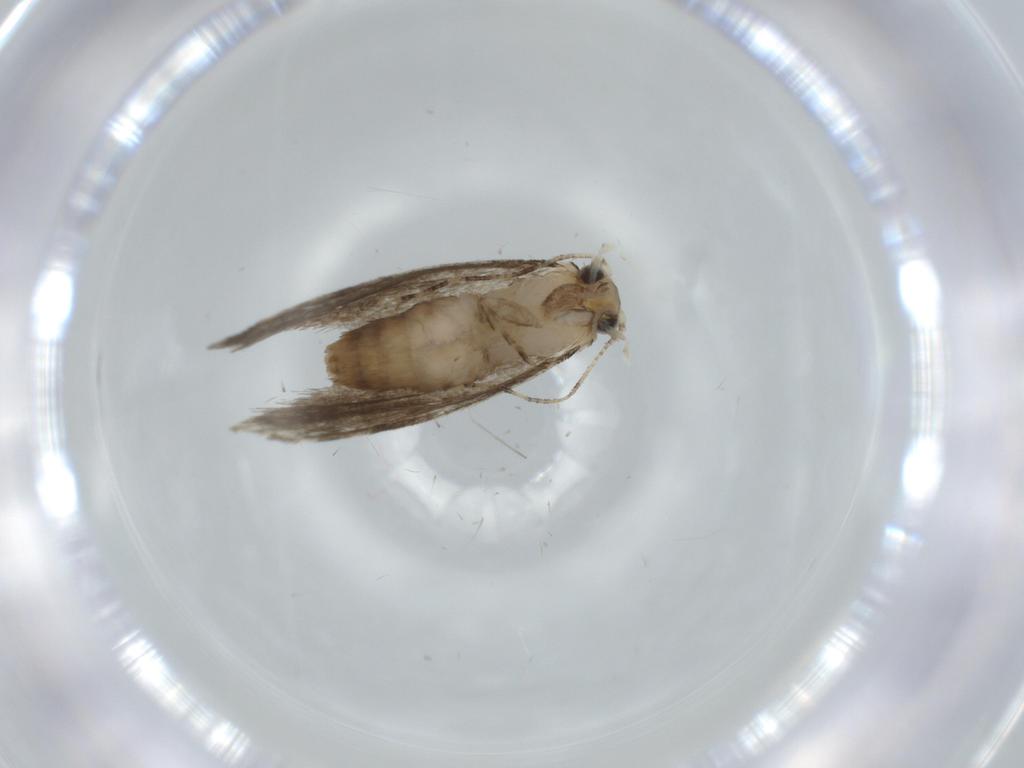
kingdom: Animalia
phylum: Arthropoda
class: Insecta
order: Lepidoptera
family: Tineidae
